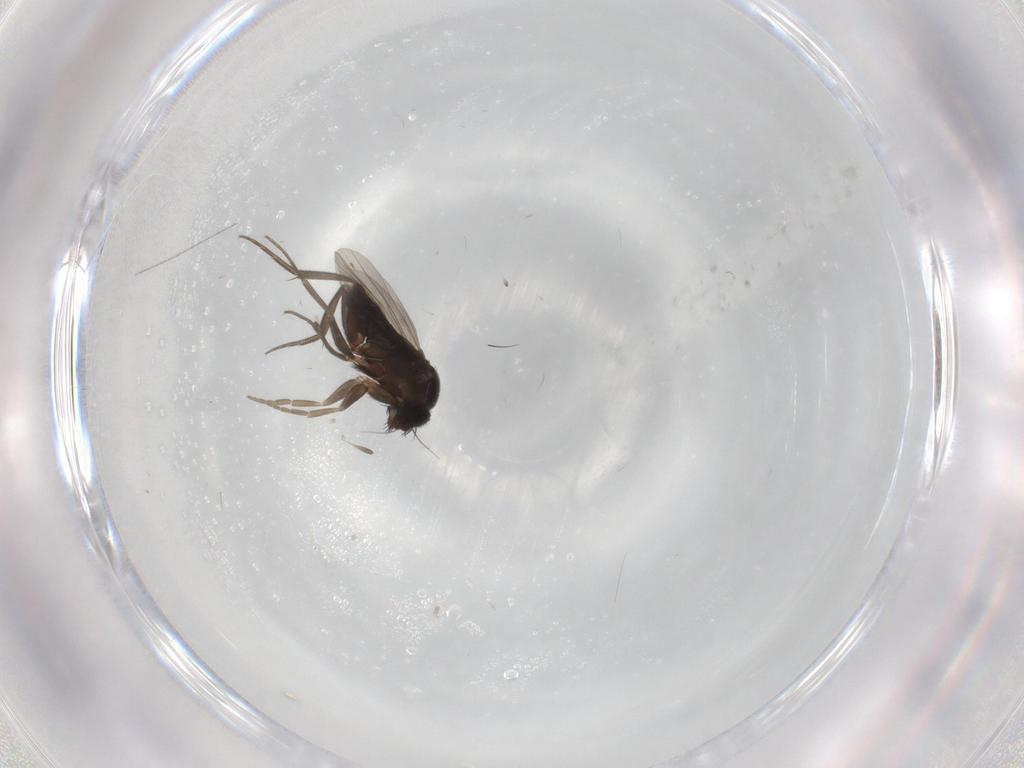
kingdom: Animalia
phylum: Arthropoda
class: Insecta
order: Diptera
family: Phoridae
